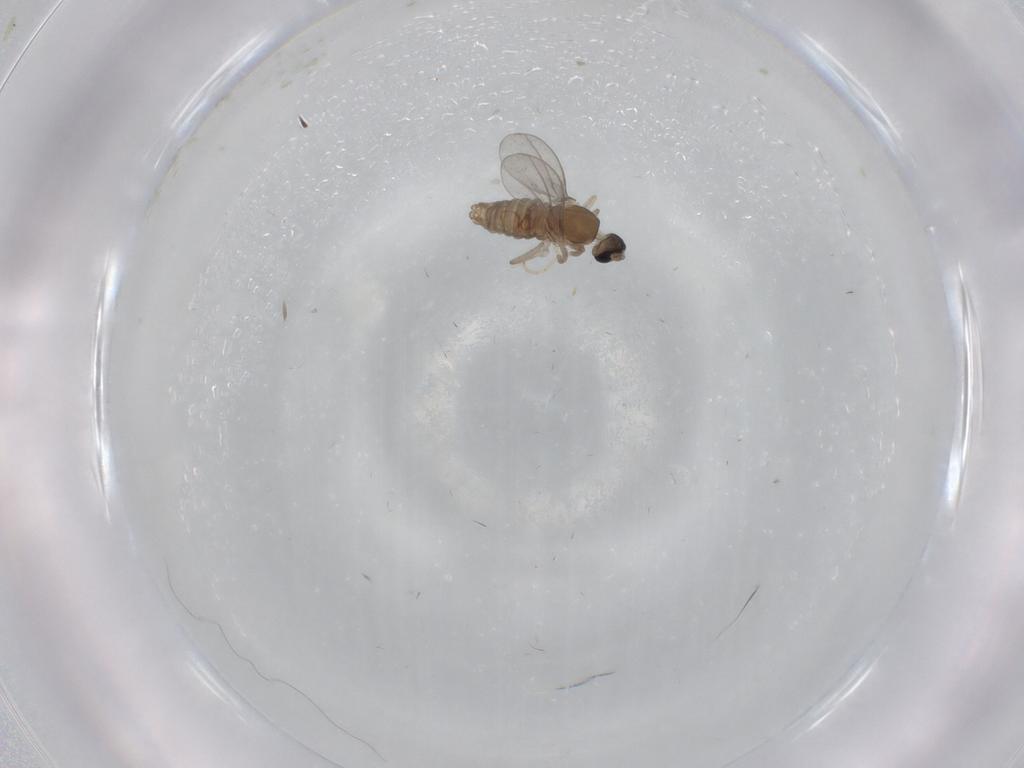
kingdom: Animalia
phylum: Arthropoda
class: Insecta
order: Diptera
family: Cecidomyiidae
